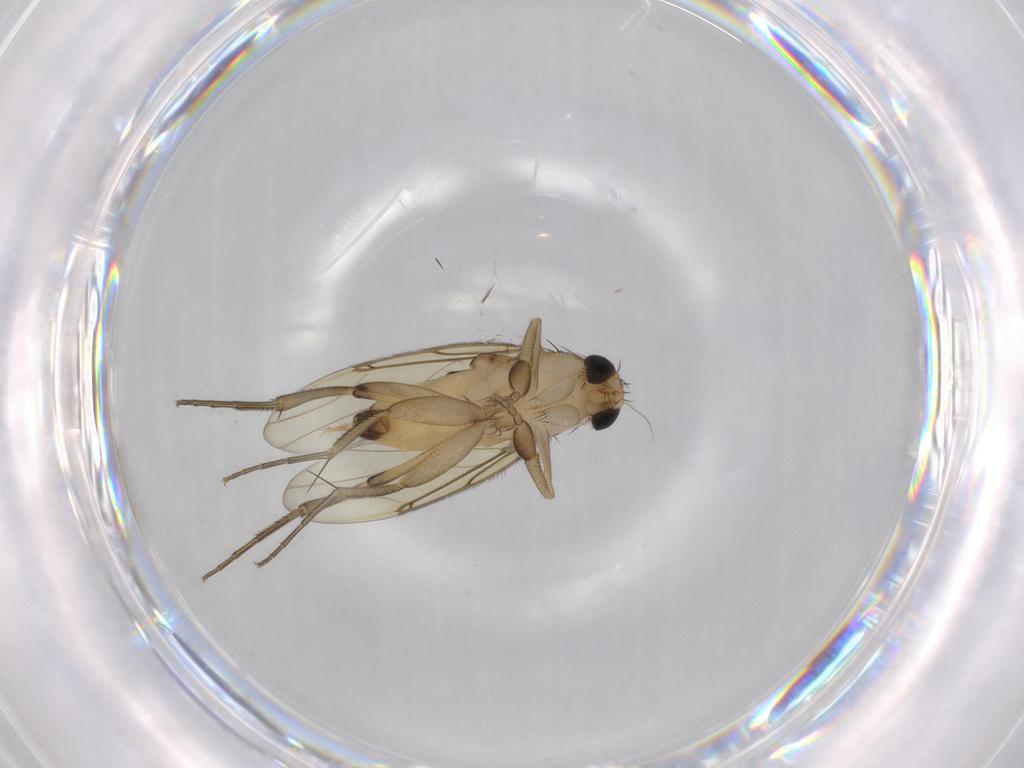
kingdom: Animalia
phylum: Arthropoda
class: Insecta
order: Diptera
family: Phoridae
